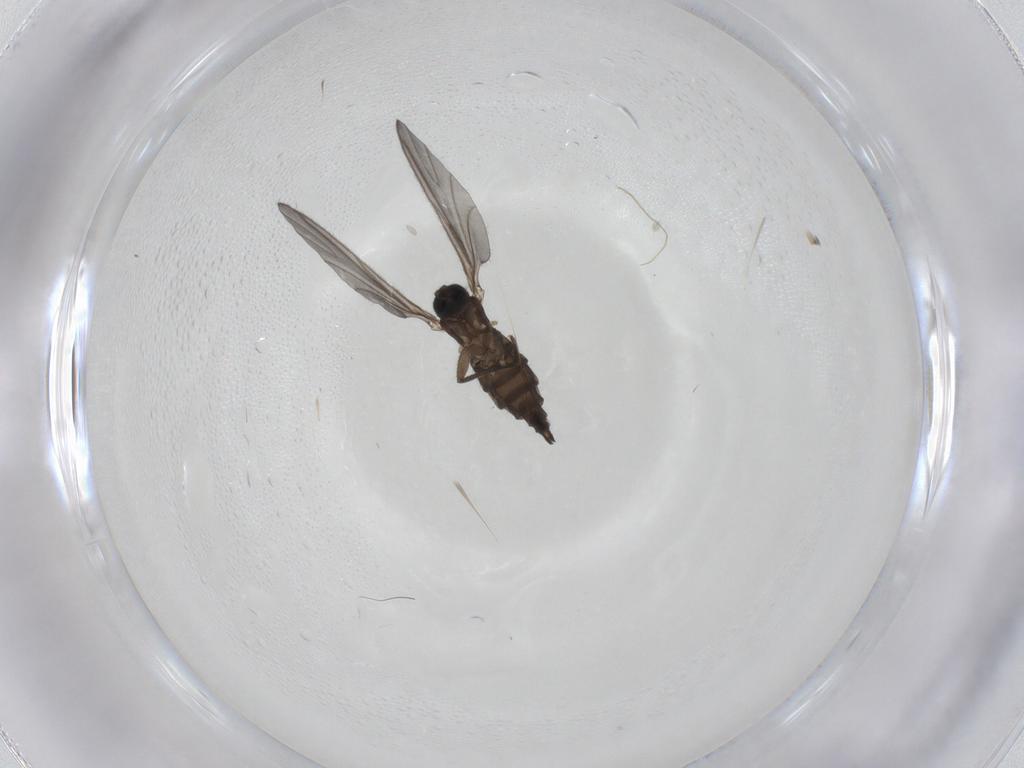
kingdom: Animalia
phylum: Arthropoda
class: Insecta
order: Diptera
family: Sciaridae
